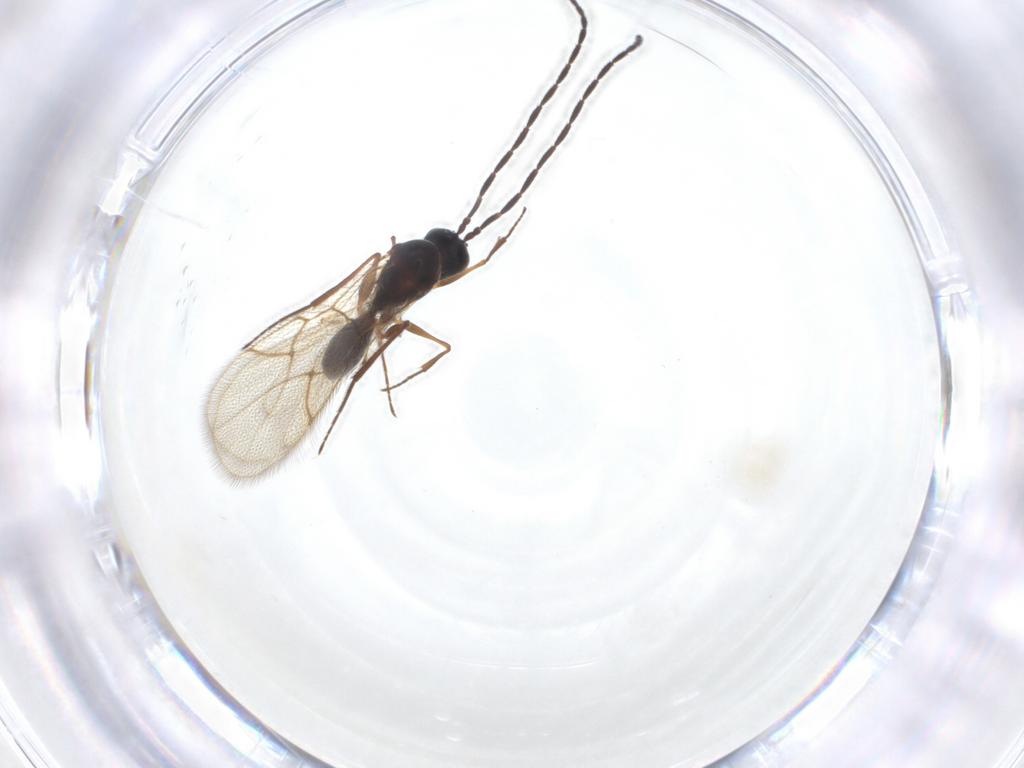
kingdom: Animalia
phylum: Arthropoda
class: Insecta
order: Hymenoptera
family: Figitidae
